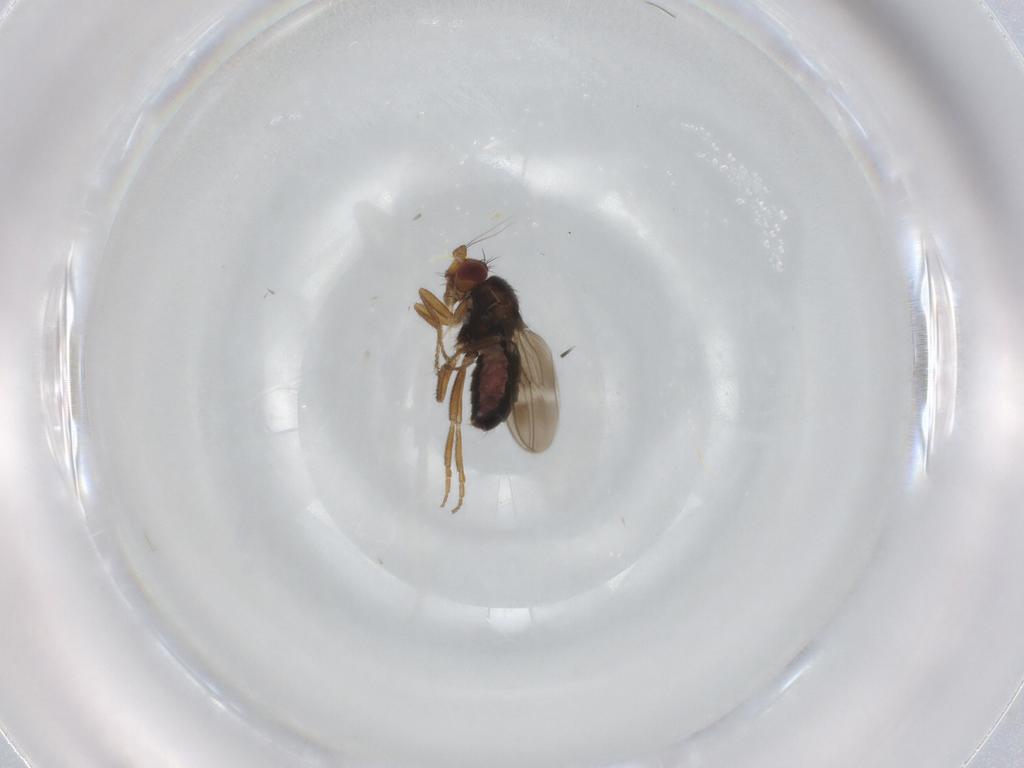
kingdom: Animalia
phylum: Arthropoda
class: Insecta
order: Diptera
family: Sphaeroceridae
